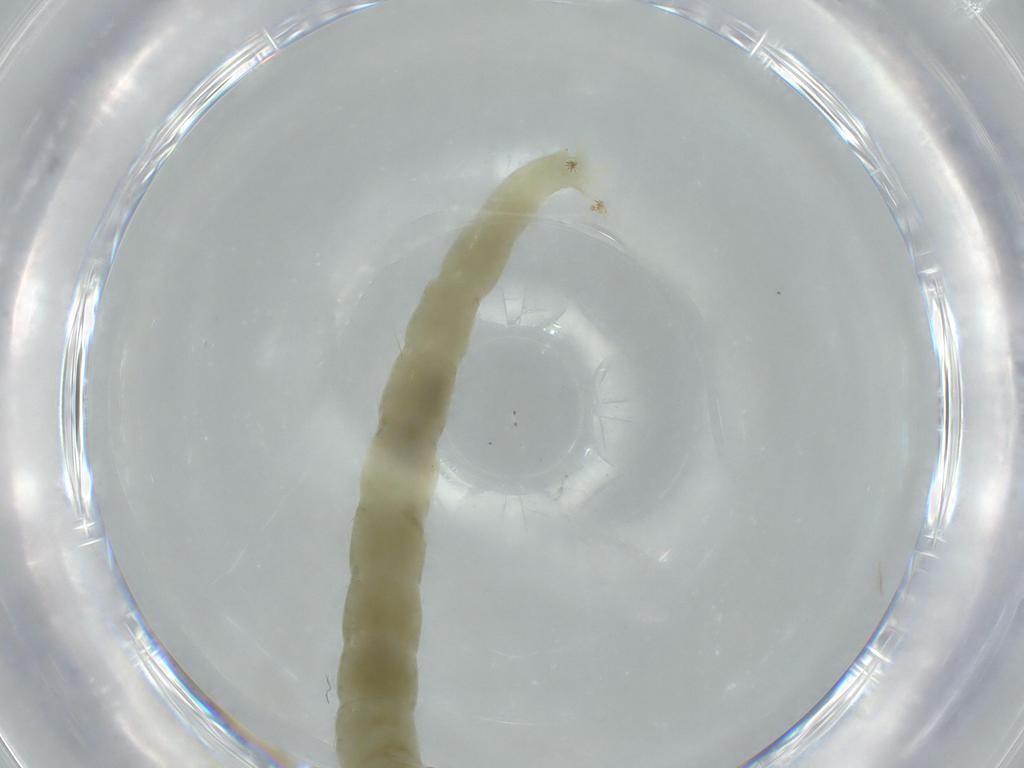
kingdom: Animalia
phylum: Arthropoda
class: Insecta
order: Diptera
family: Chironomidae
